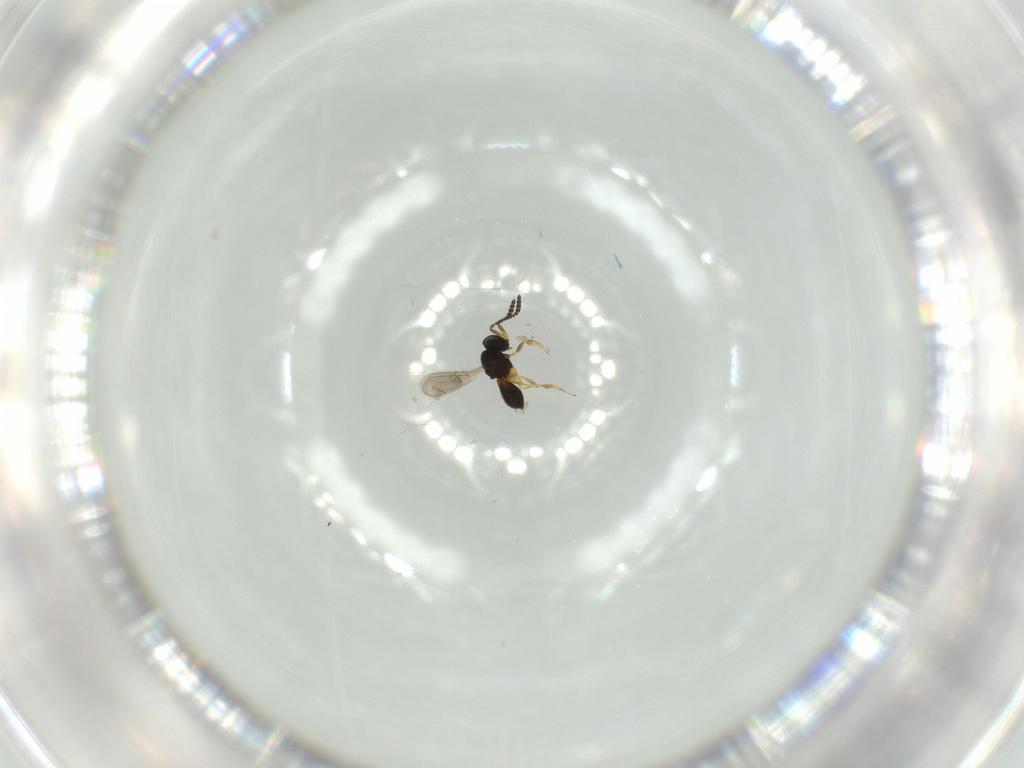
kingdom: Animalia
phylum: Arthropoda
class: Insecta
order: Hymenoptera
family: Scelionidae
